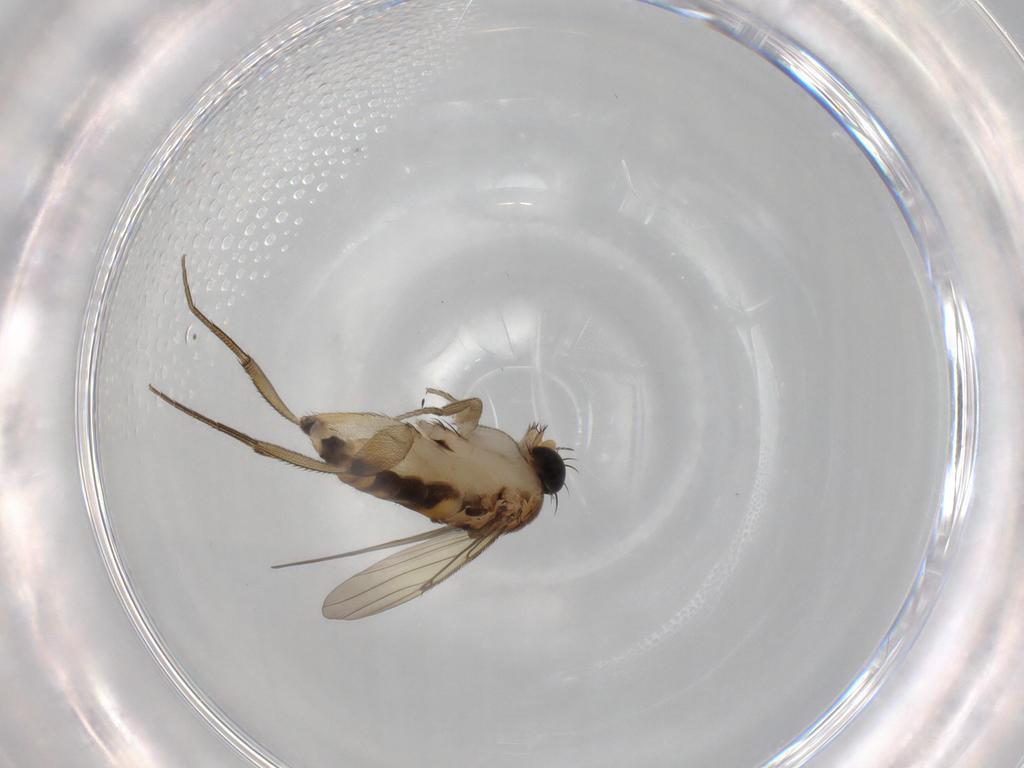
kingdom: Animalia
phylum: Arthropoda
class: Insecta
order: Diptera
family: Phoridae
